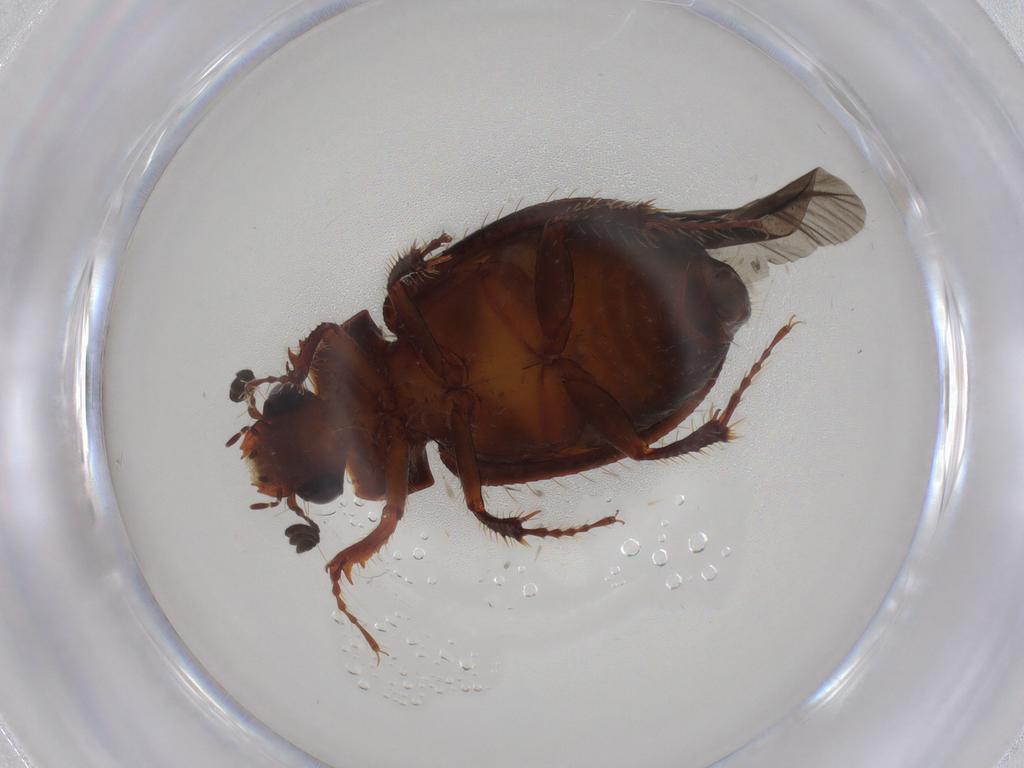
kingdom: Animalia
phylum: Arthropoda
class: Insecta
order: Coleoptera
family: Hybosoridae
